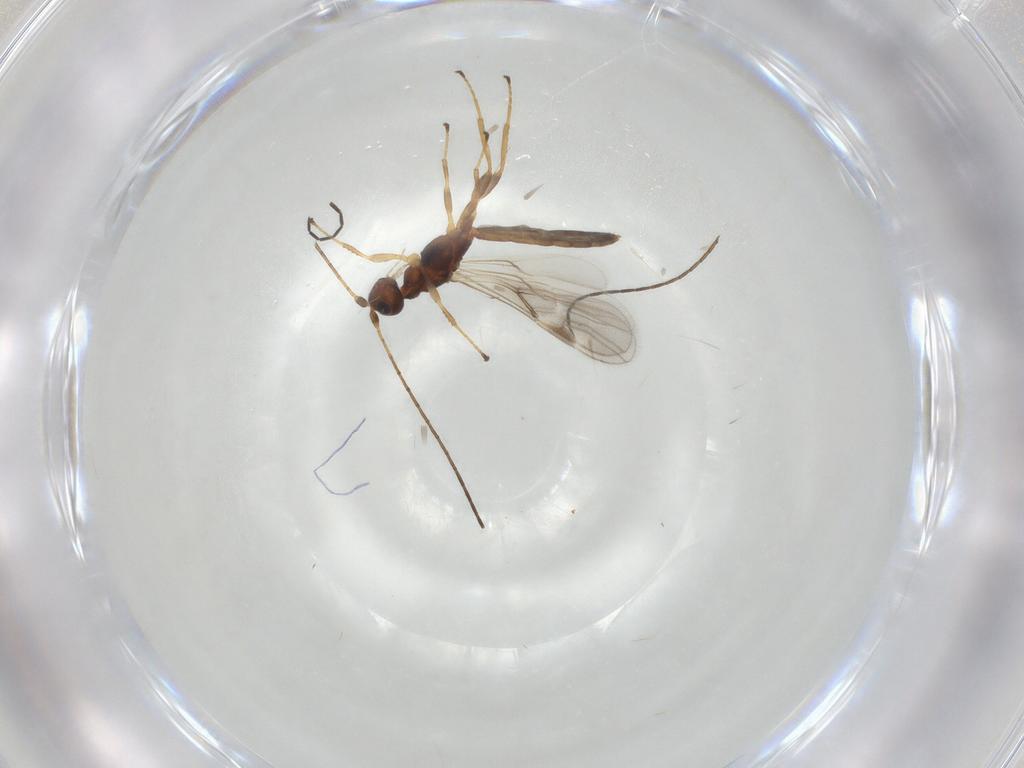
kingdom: Animalia
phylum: Arthropoda
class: Insecta
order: Hymenoptera
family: Braconidae
